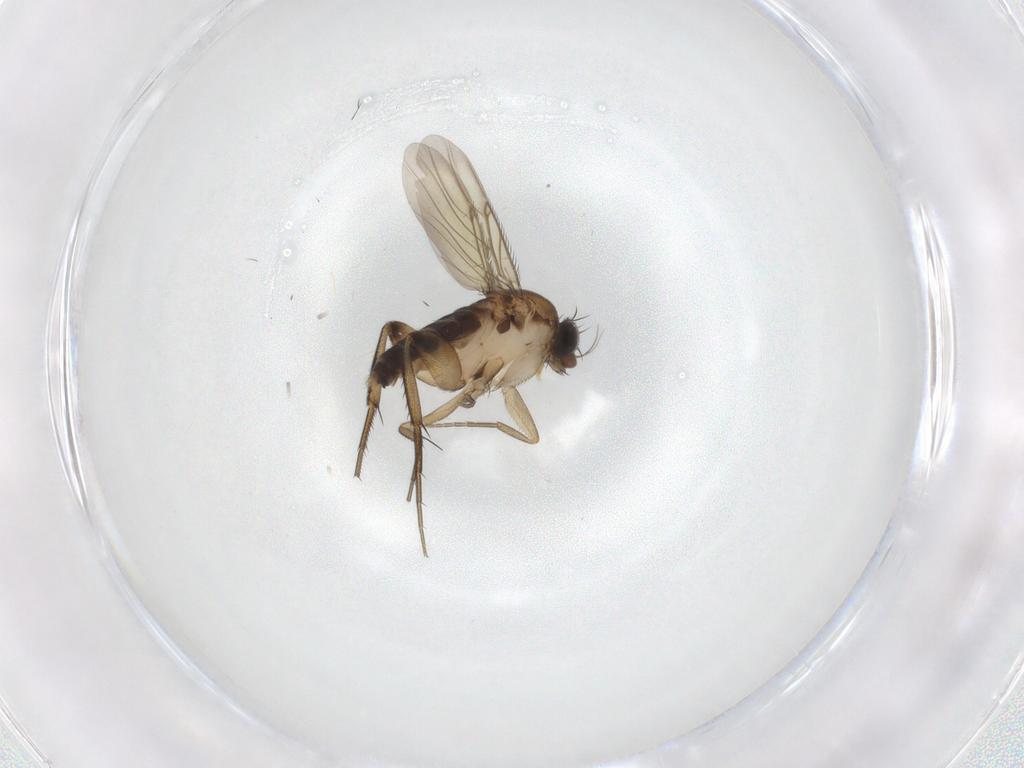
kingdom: Animalia
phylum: Arthropoda
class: Insecta
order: Diptera
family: Phoridae
